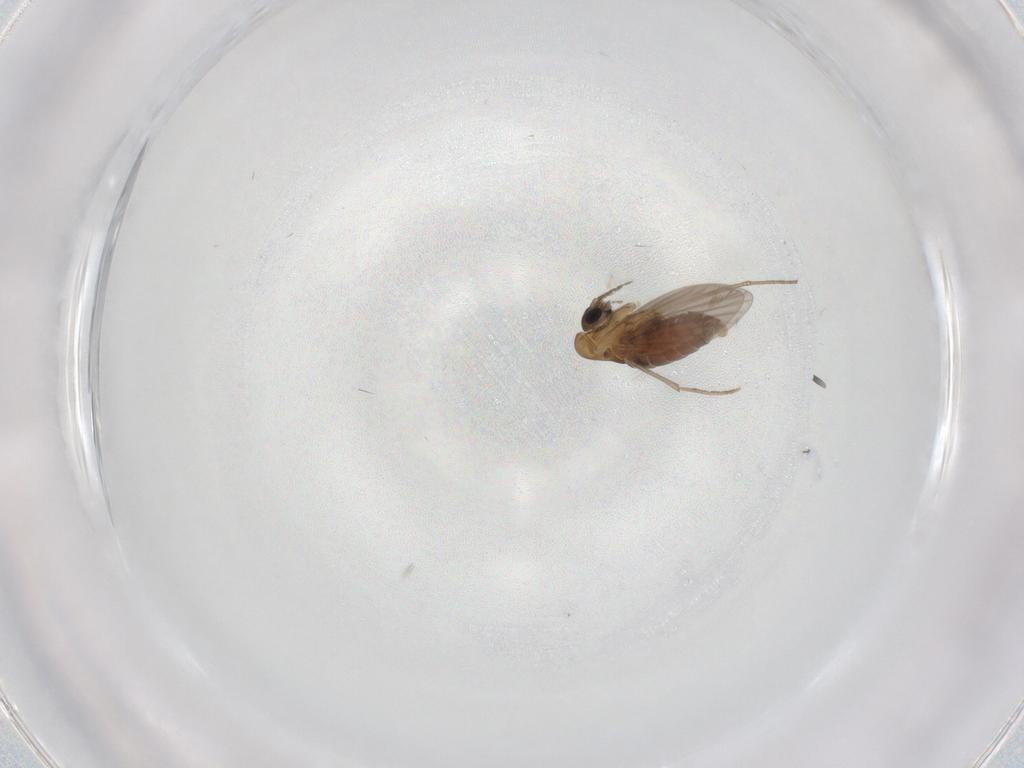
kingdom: Animalia
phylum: Arthropoda
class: Insecta
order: Diptera
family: Phoridae
